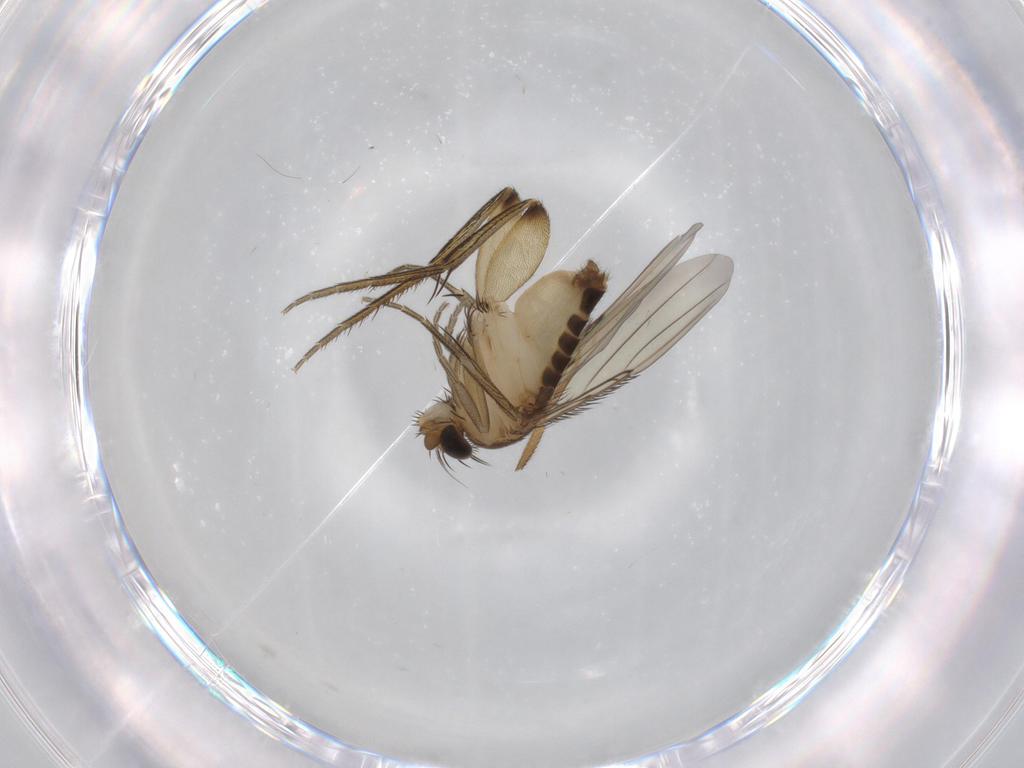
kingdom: Animalia
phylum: Arthropoda
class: Insecta
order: Diptera
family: Phoridae
